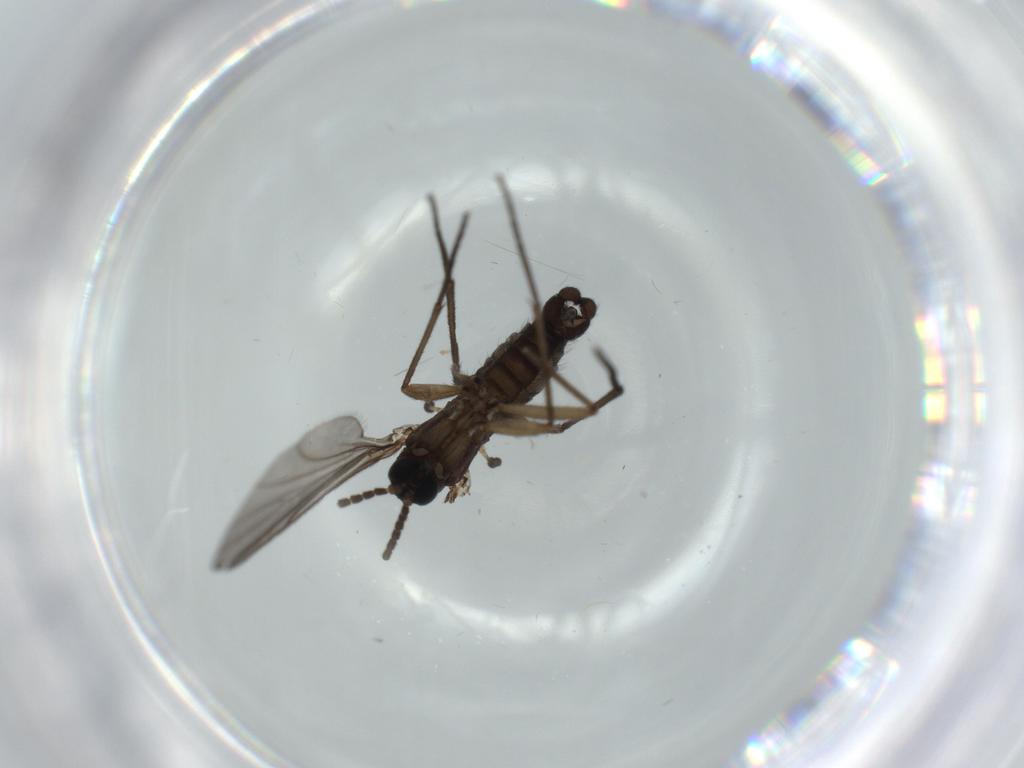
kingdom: Animalia
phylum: Arthropoda
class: Insecta
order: Diptera
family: Sciaridae
